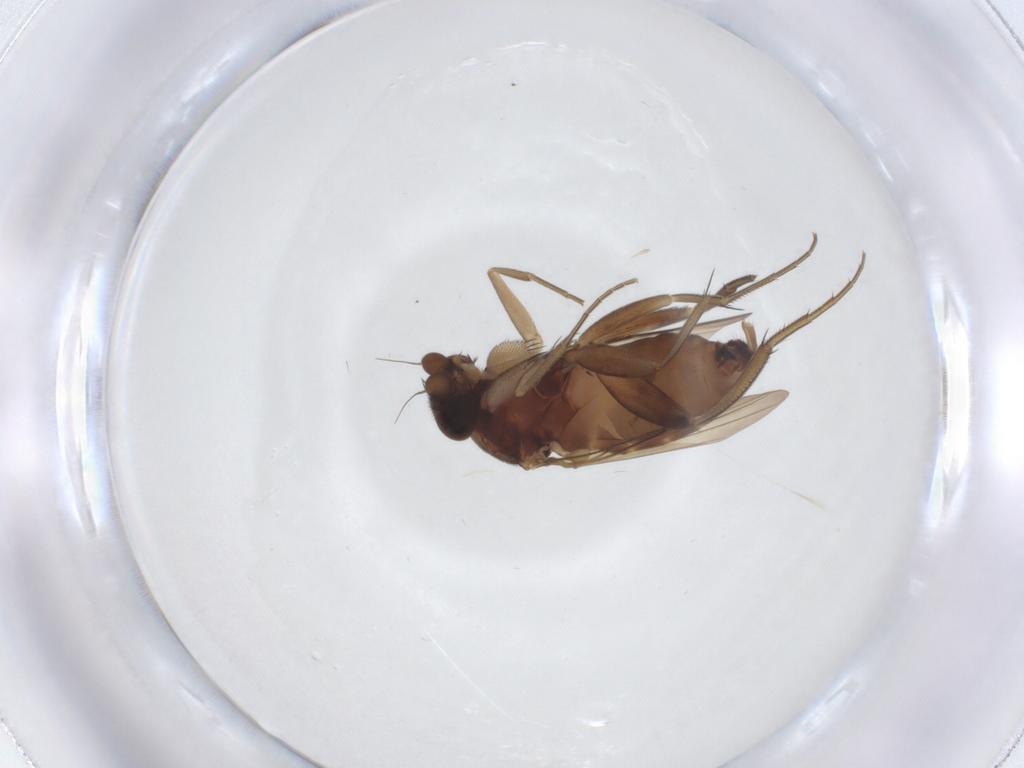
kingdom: Animalia
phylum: Arthropoda
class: Insecta
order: Diptera
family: Phoridae
